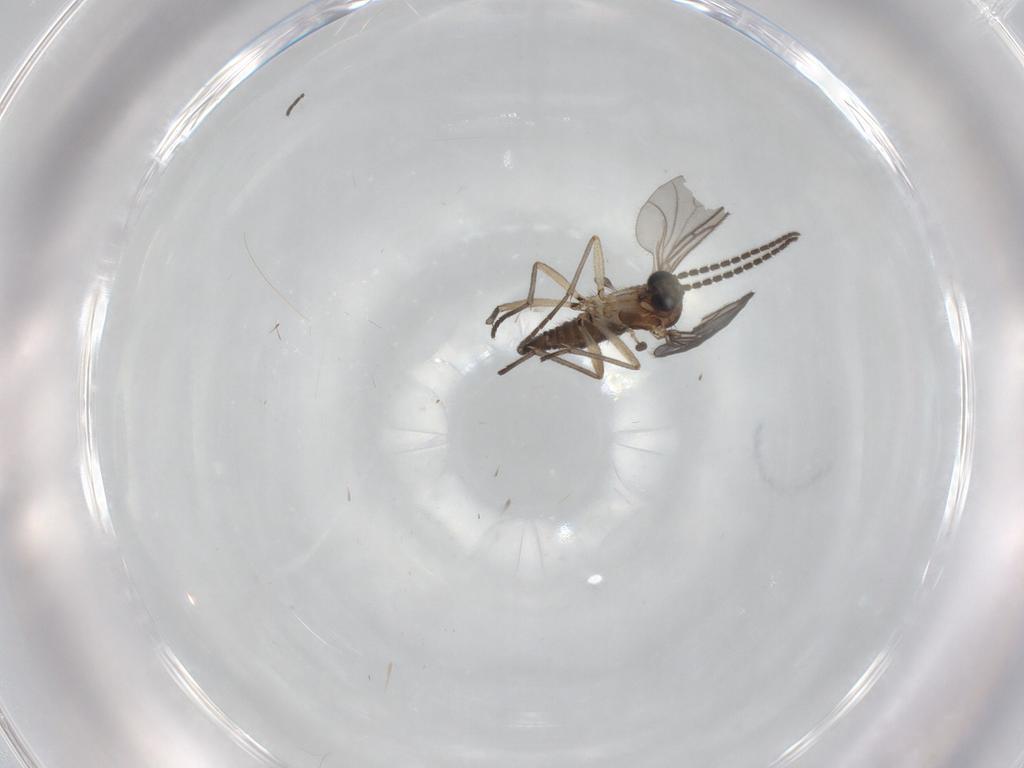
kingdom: Animalia
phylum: Arthropoda
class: Insecta
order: Diptera
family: Sciaridae
